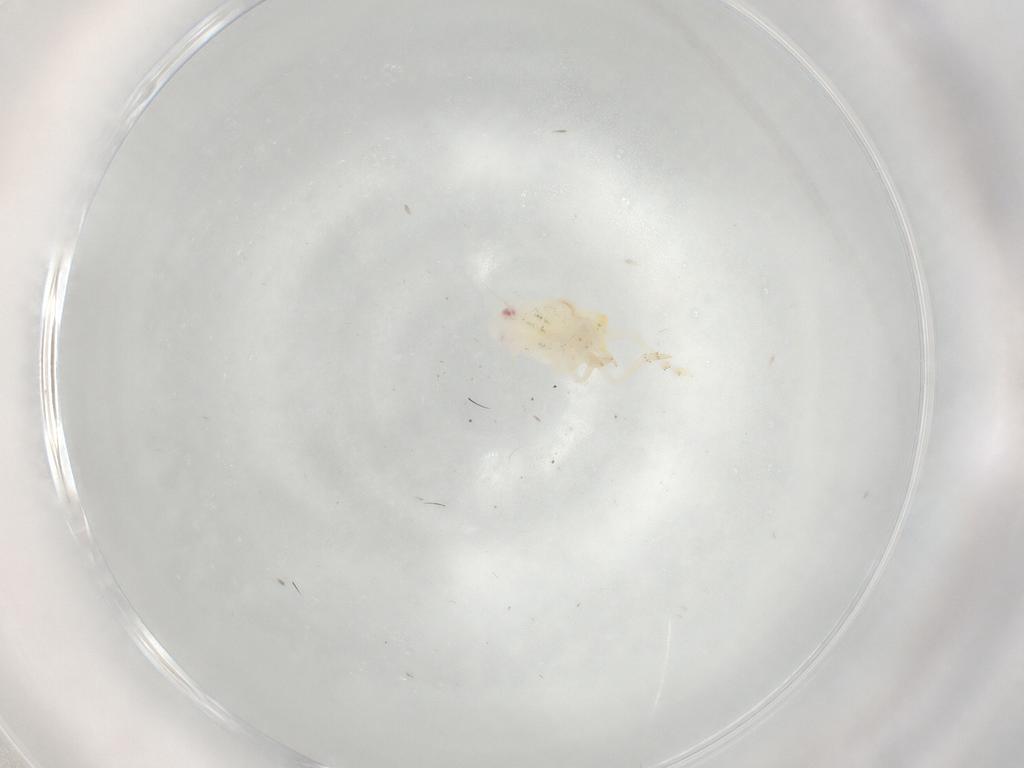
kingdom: Animalia
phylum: Arthropoda
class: Insecta
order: Hemiptera
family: Flatidae
